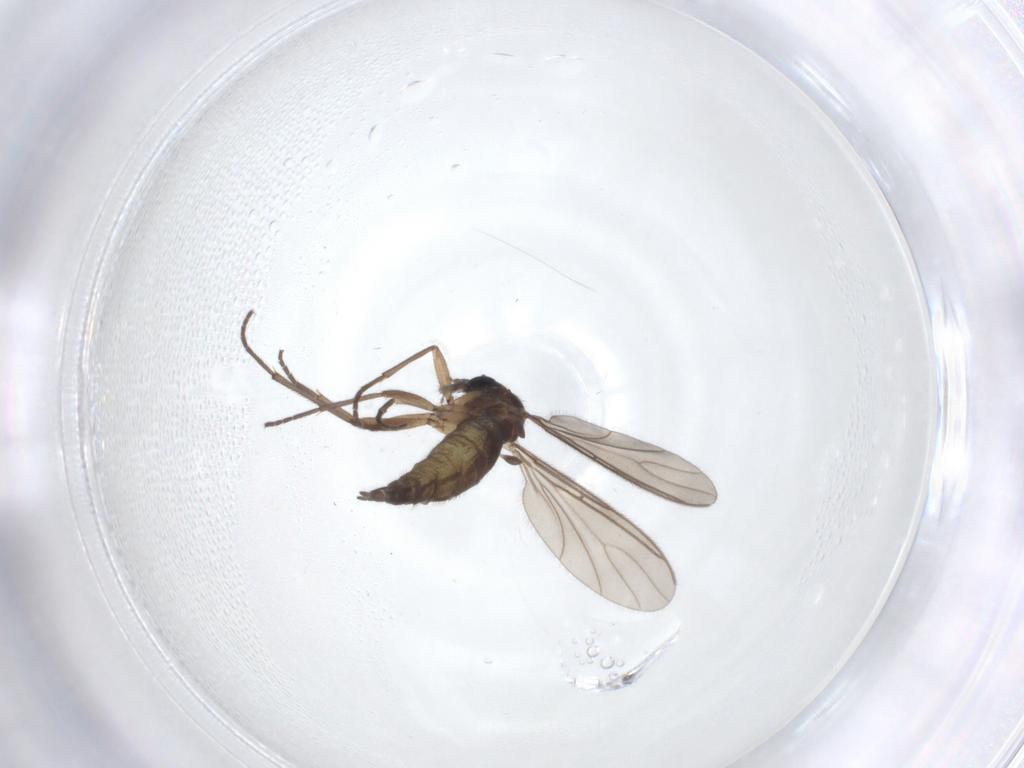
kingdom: Animalia
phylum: Arthropoda
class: Insecta
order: Diptera
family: Sciaridae
